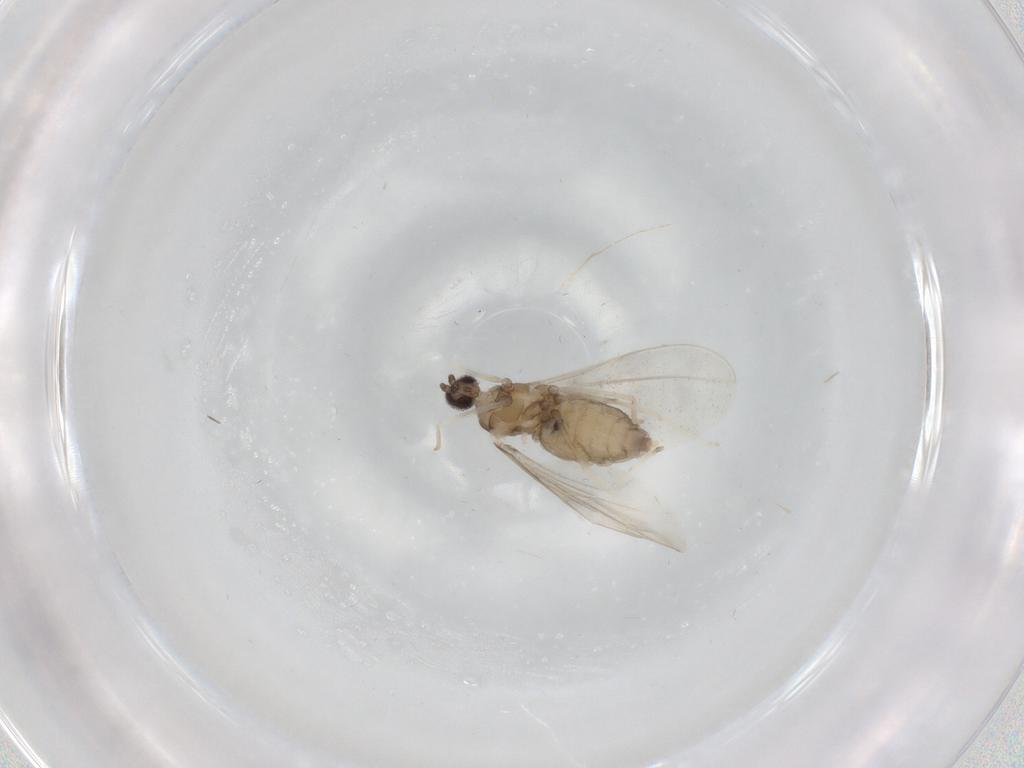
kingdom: Animalia
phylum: Arthropoda
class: Insecta
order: Diptera
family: Limoniidae
